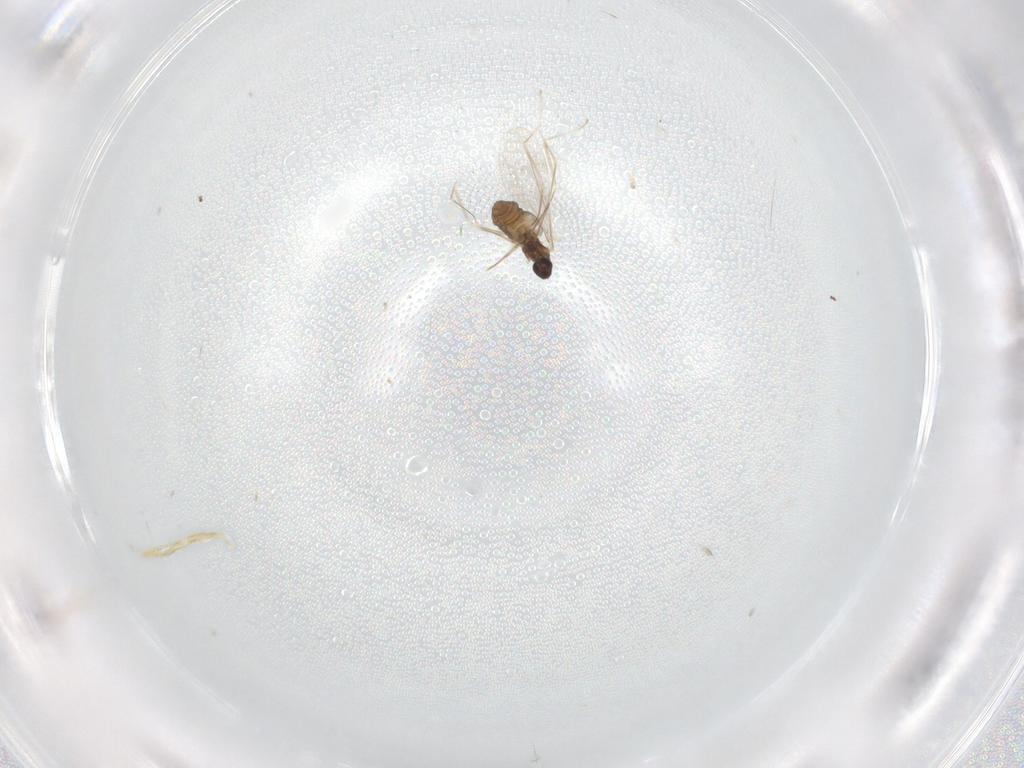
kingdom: Animalia
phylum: Arthropoda
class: Insecta
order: Diptera
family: Cecidomyiidae
